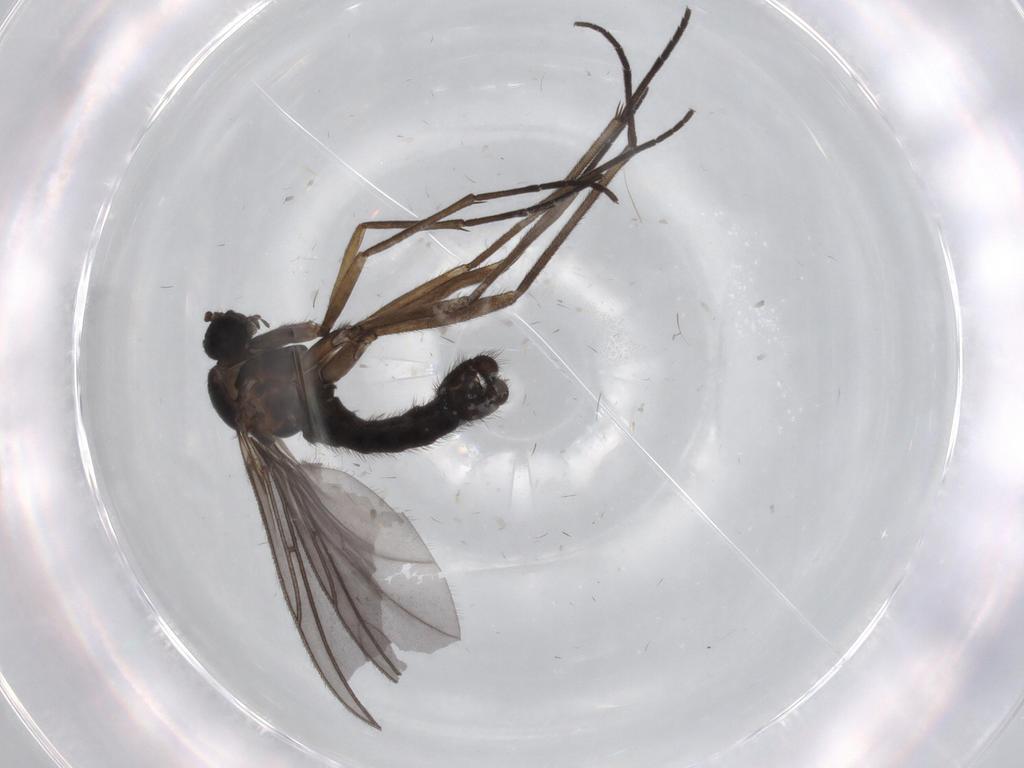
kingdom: Animalia
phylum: Arthropoda
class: Insecta
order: Diptera
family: Sciaridae
